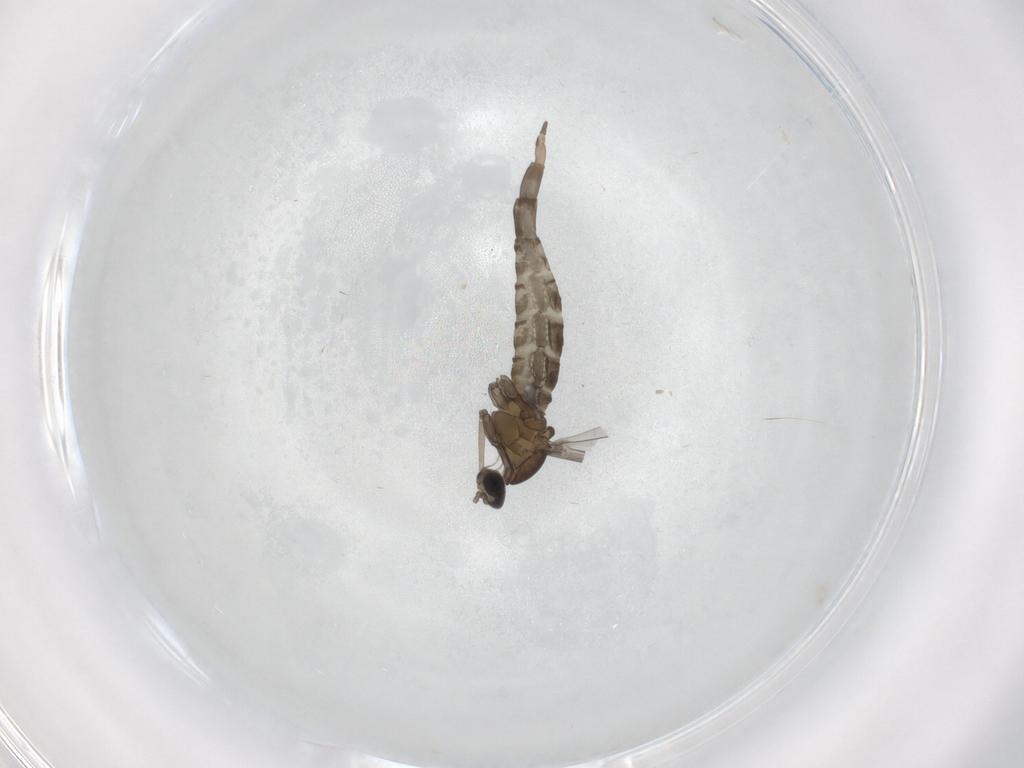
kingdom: Animalia
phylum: Arthropoda
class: Insecta
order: Diptera
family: Cecidomyiidae
